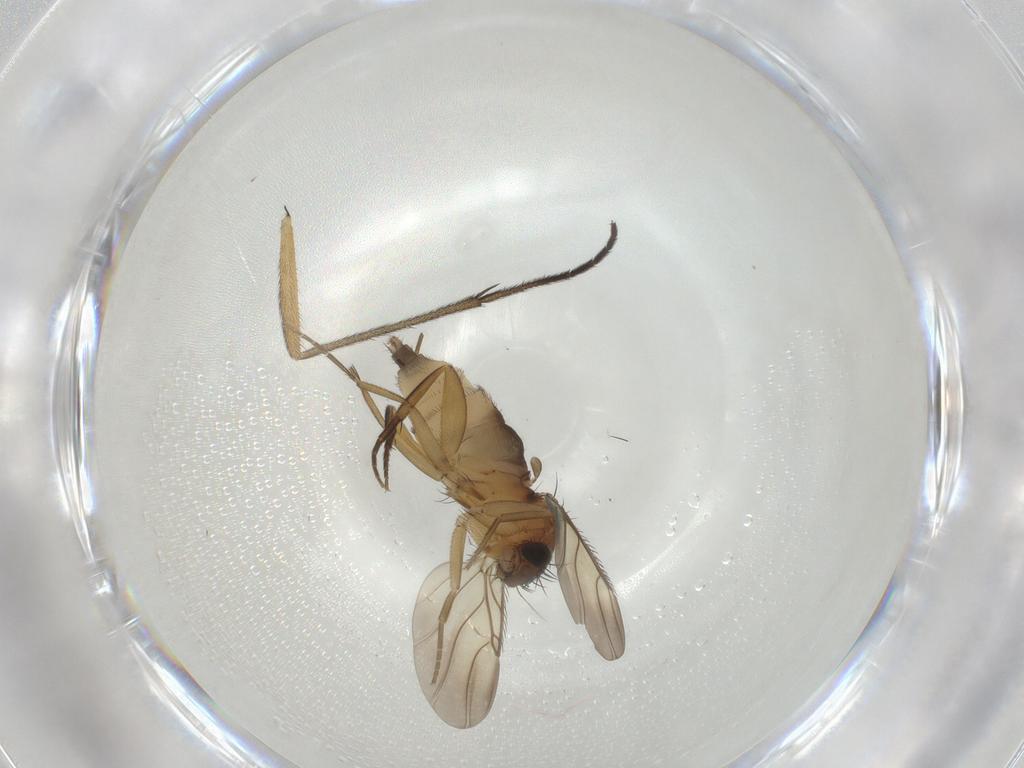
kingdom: Animalia
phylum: Arthropoda
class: Insecta
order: Diptera
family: Phoridae
